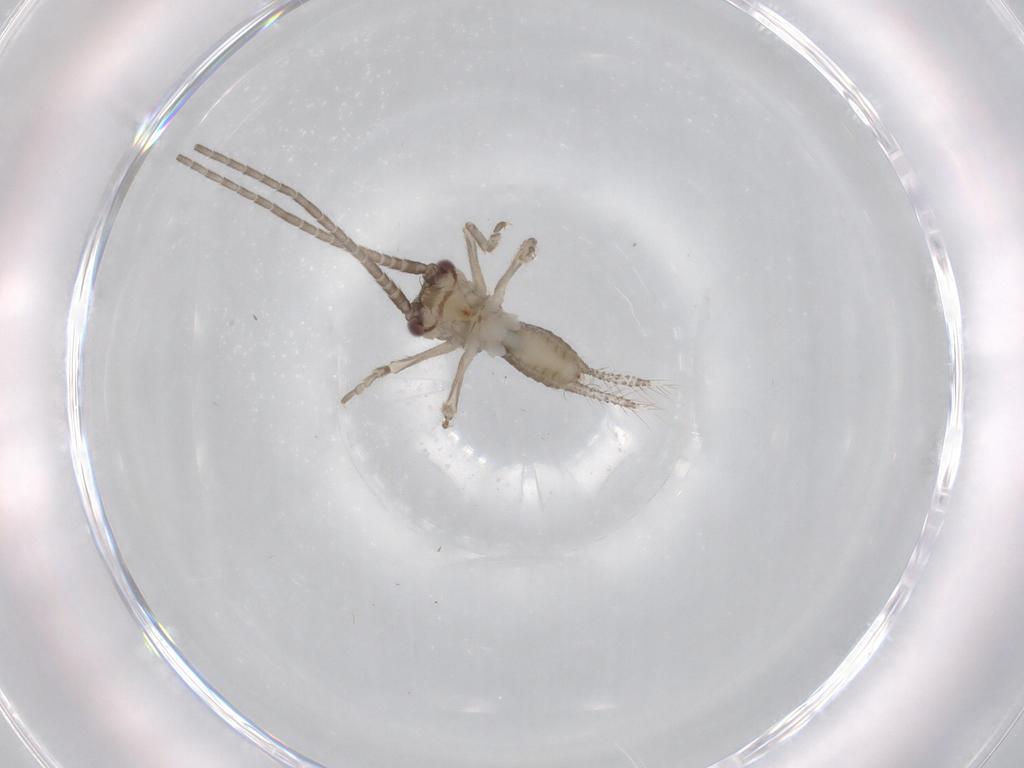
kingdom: Animalia
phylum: Arthropoda
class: Insecta
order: Orthoptera
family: Gryllidae
